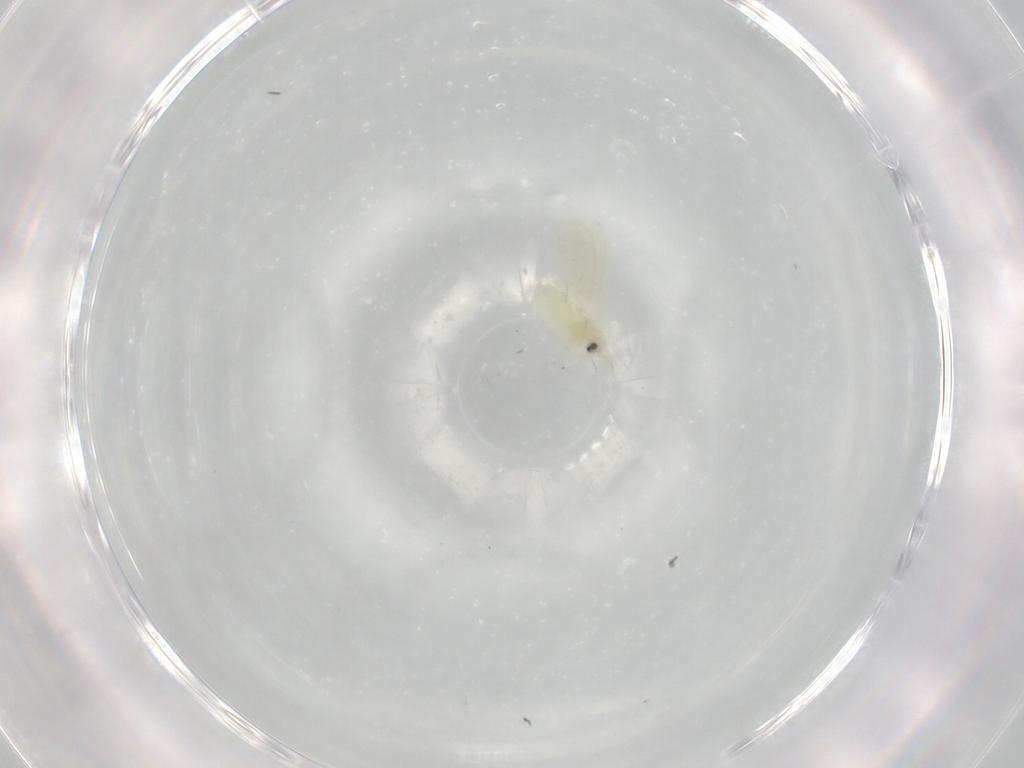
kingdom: Animalia
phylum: Arthropoda
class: Insecta
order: Hemiptera
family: Aleyrodidae
